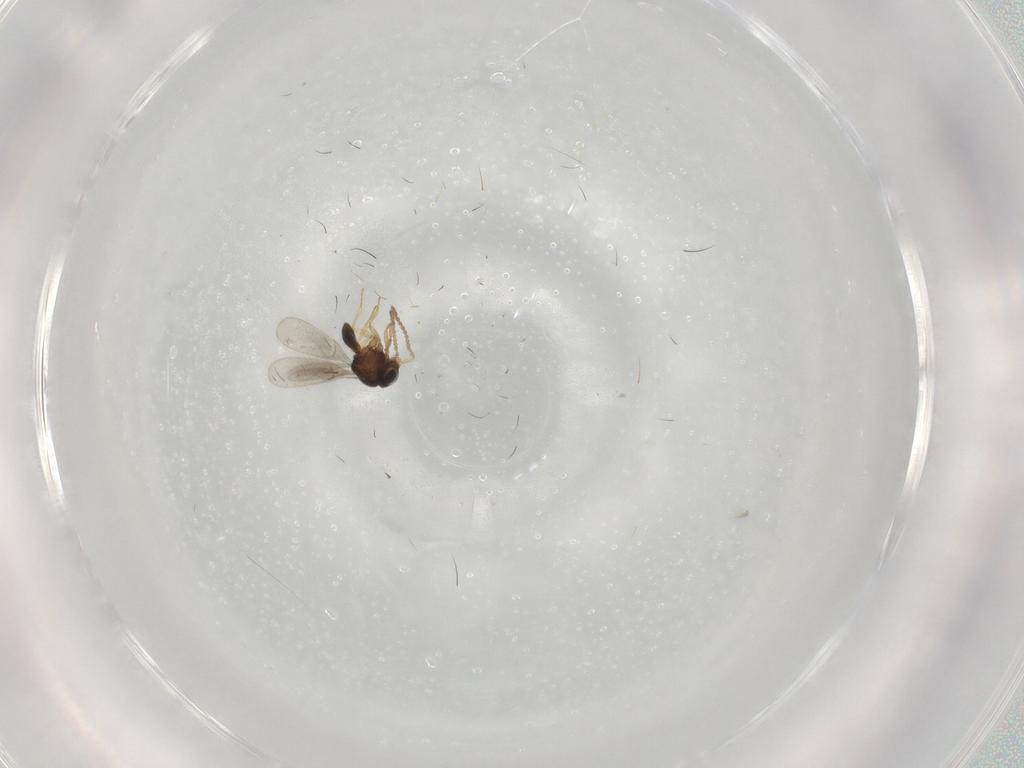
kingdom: Animalia
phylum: Arthropoda
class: Insecta
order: Hymenoptera
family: Scelionidae
